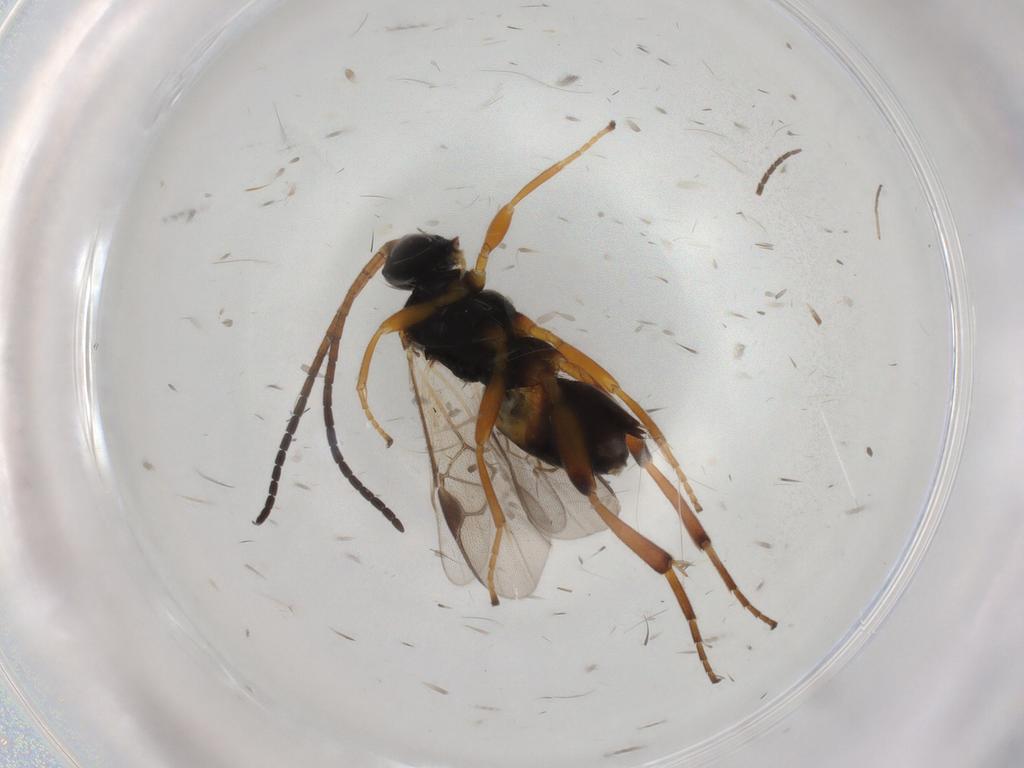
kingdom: Animalia
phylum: Arthropoda
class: Insecta
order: Hymenoptera
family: Braconidae
